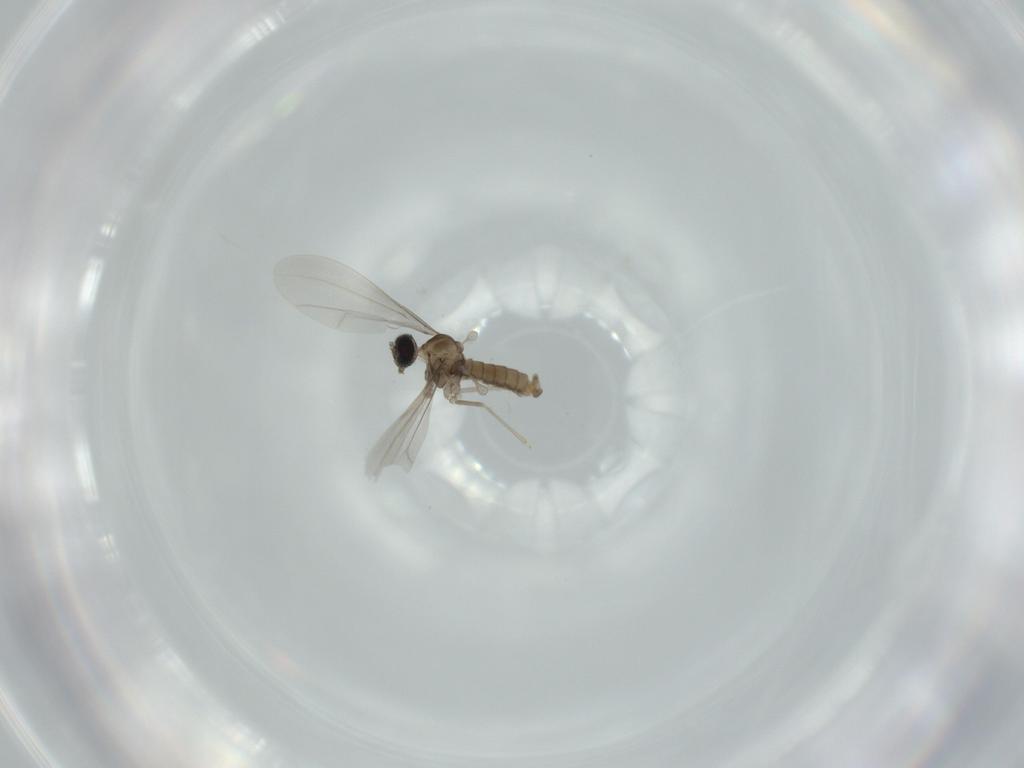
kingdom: Animalia
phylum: Arthropoda
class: Insecta
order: Diptera
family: Cecidomyiidae
